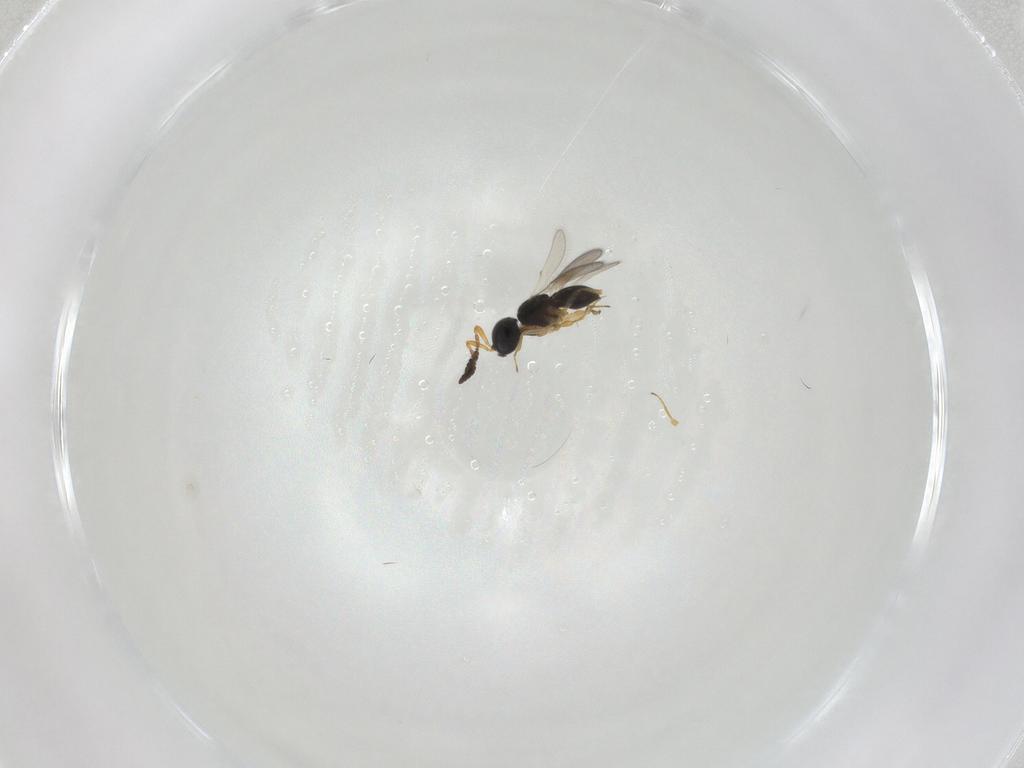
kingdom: Animalia
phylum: Arthropoda
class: Insecta
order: Hymenoptera
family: Scelionidae
